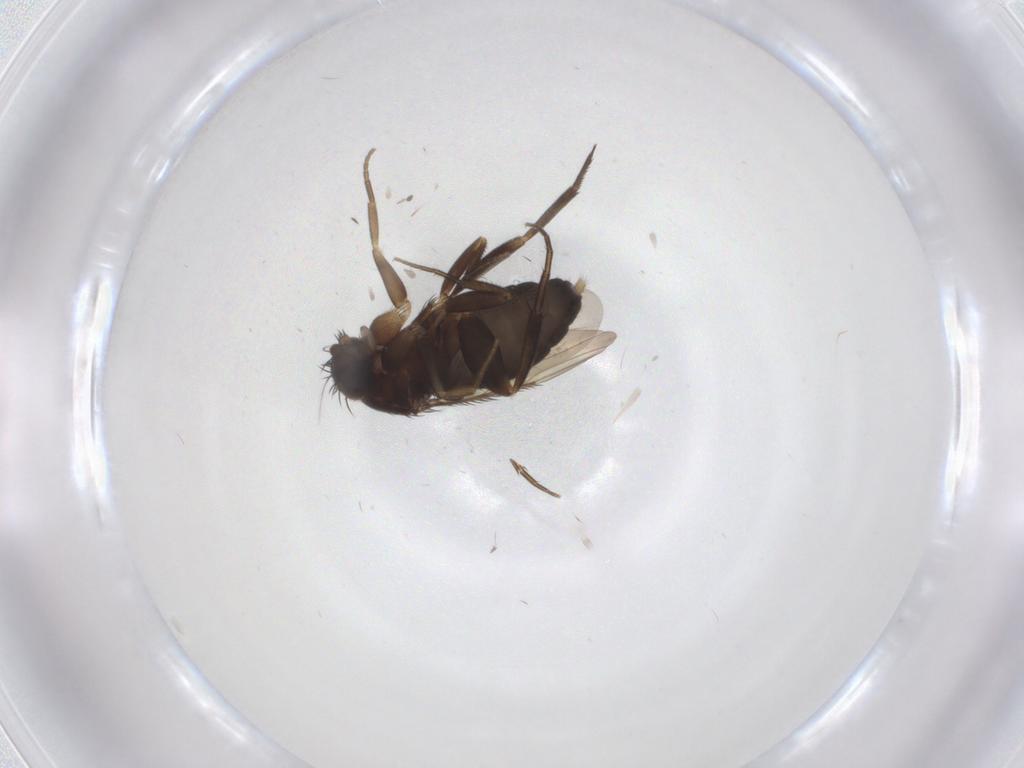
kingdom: Animalia
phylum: Arthropoda
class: Insecta
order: Diptera
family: Phoridae
